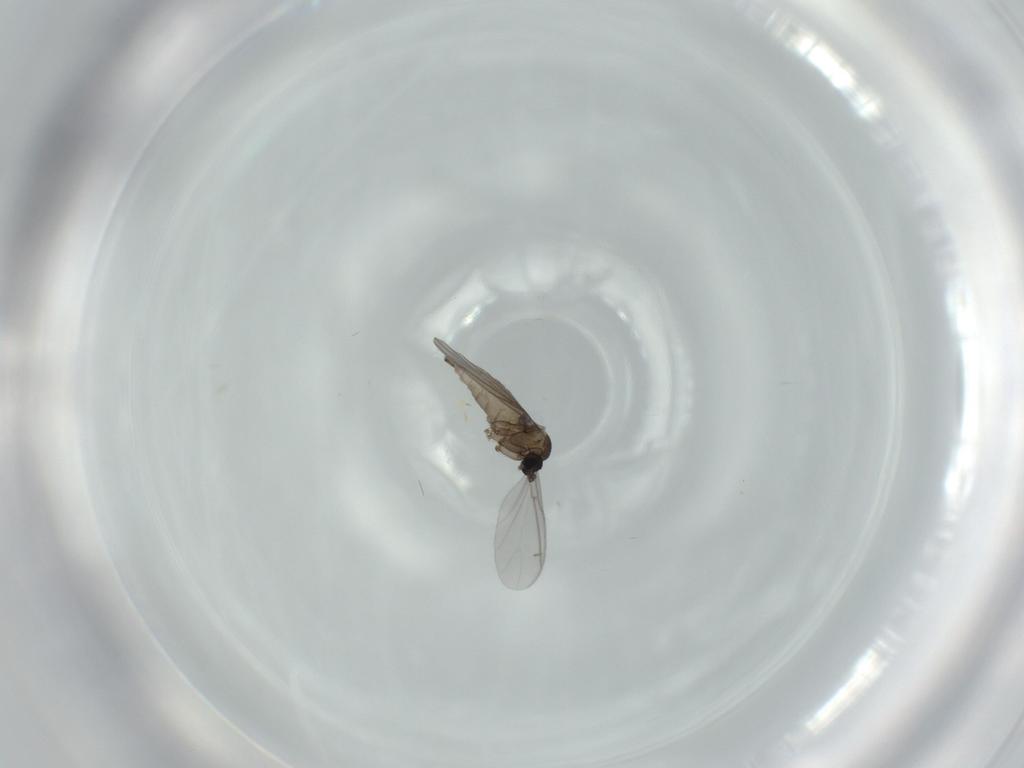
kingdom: Animalia
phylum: Arthropoda
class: Insecta
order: Diptera
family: Sciaridae
